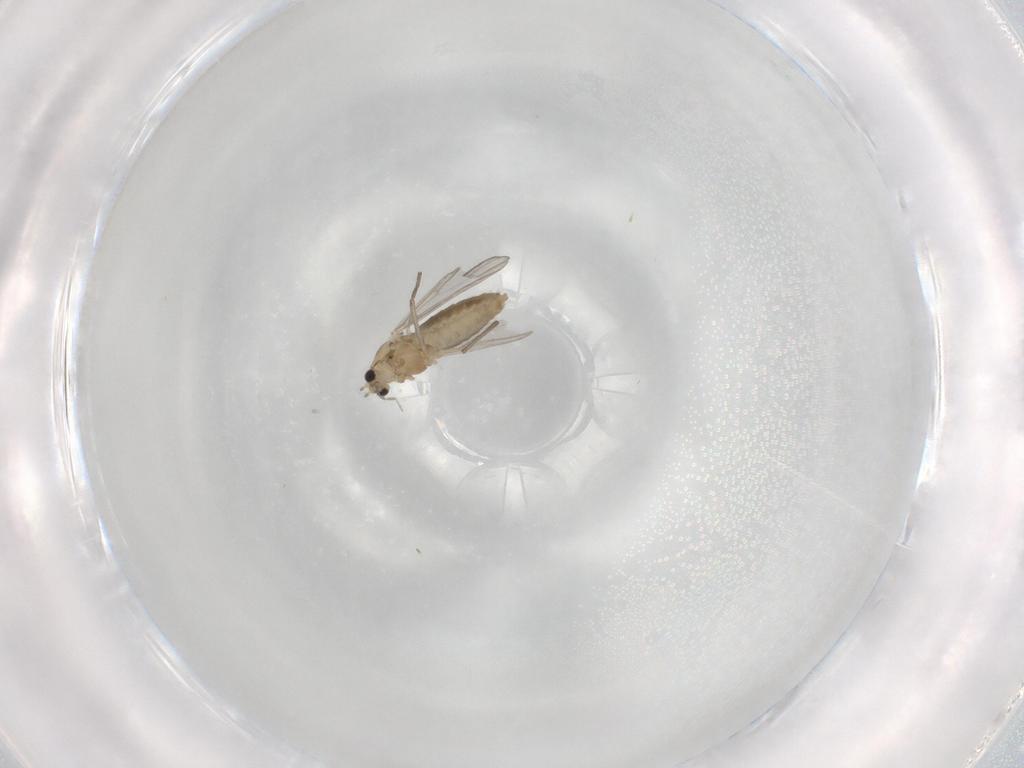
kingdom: Animalia
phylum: Arthropoda
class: Insecta
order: Diptera
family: Chironomidae
